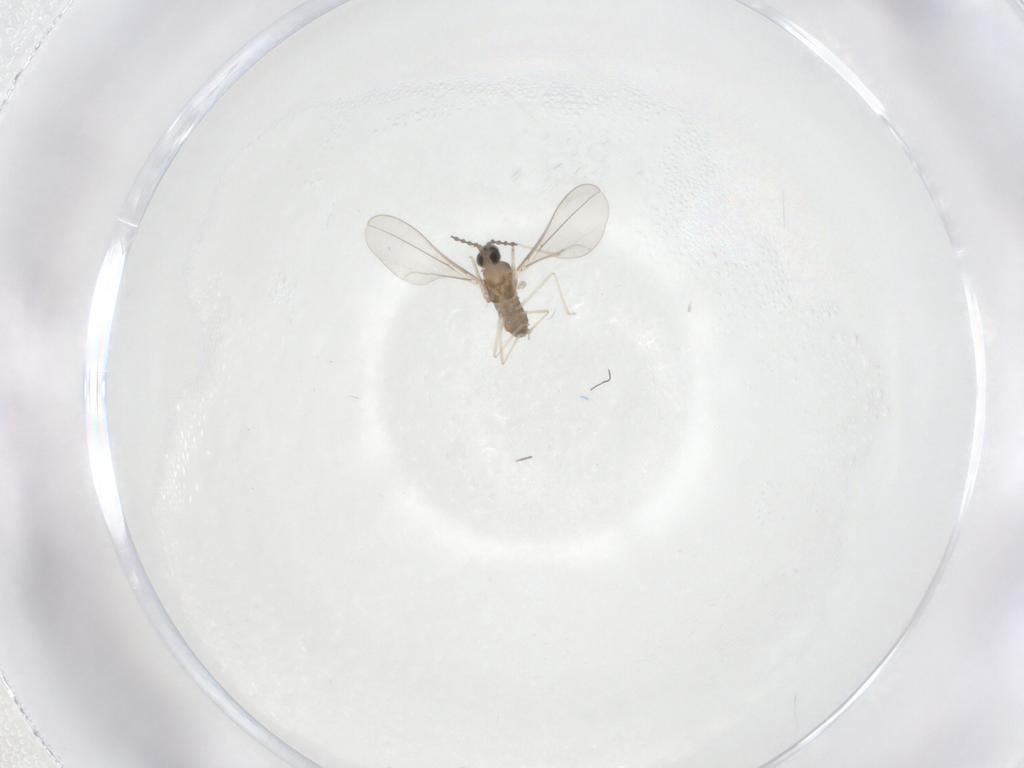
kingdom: Animalia
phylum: Arthropoda
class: Insecta
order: Diptera
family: Cecidomyiidae
